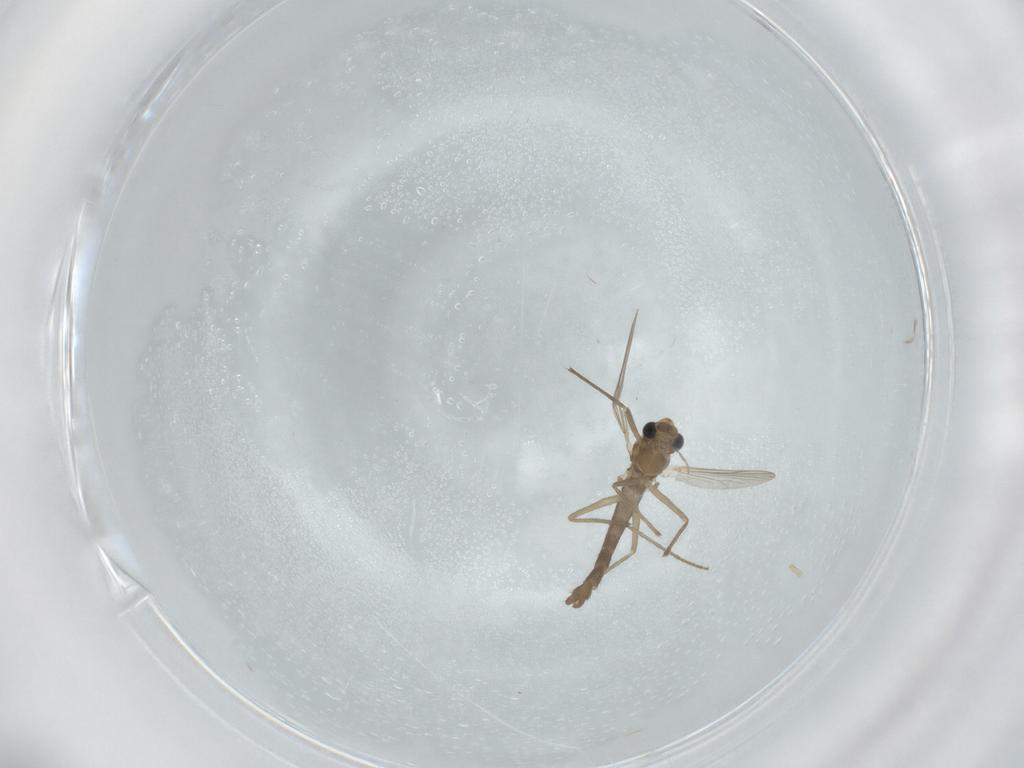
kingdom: Animalia
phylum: Arthropoda
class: Insecta
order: Diptera
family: Chironomidae
